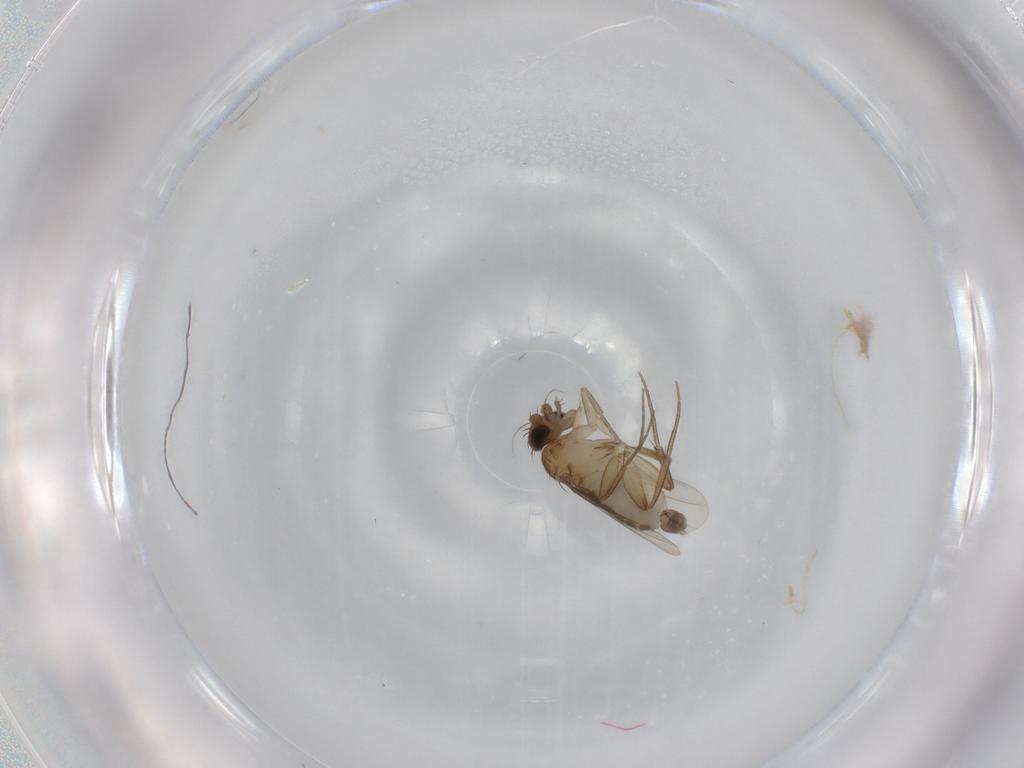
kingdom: Animalia
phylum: Arthropoda
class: Insecta
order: Diptera
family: Phoridae
